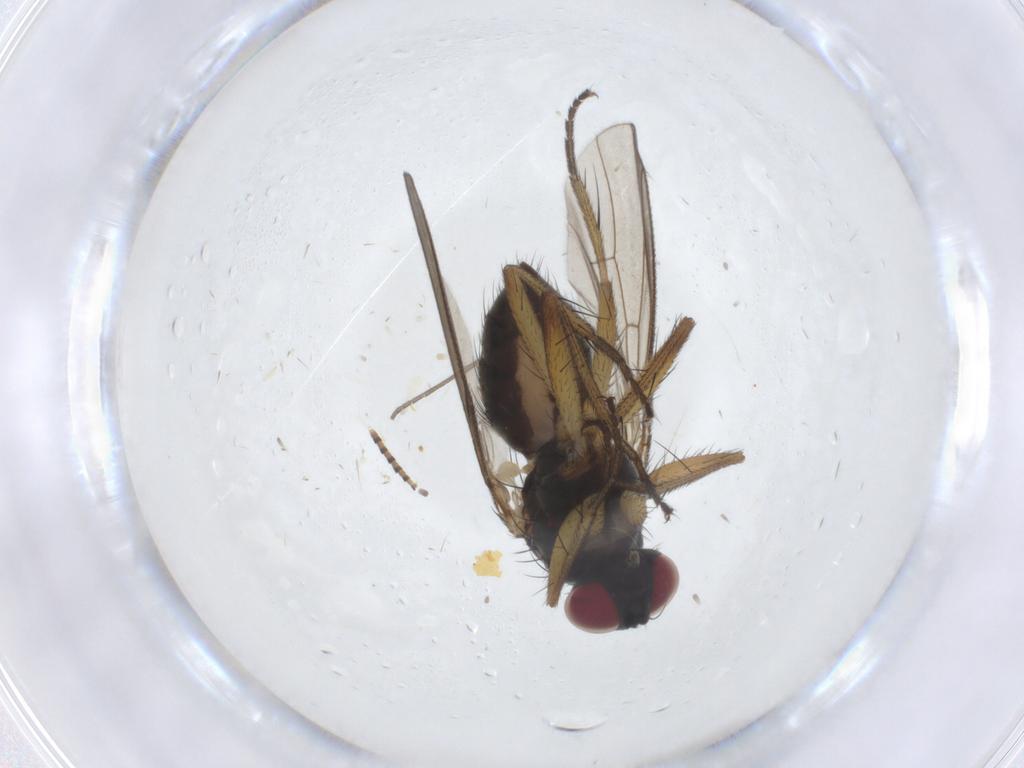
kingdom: Animalia
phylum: Arthropoda
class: Insecta
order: Diptera
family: Muscidae
